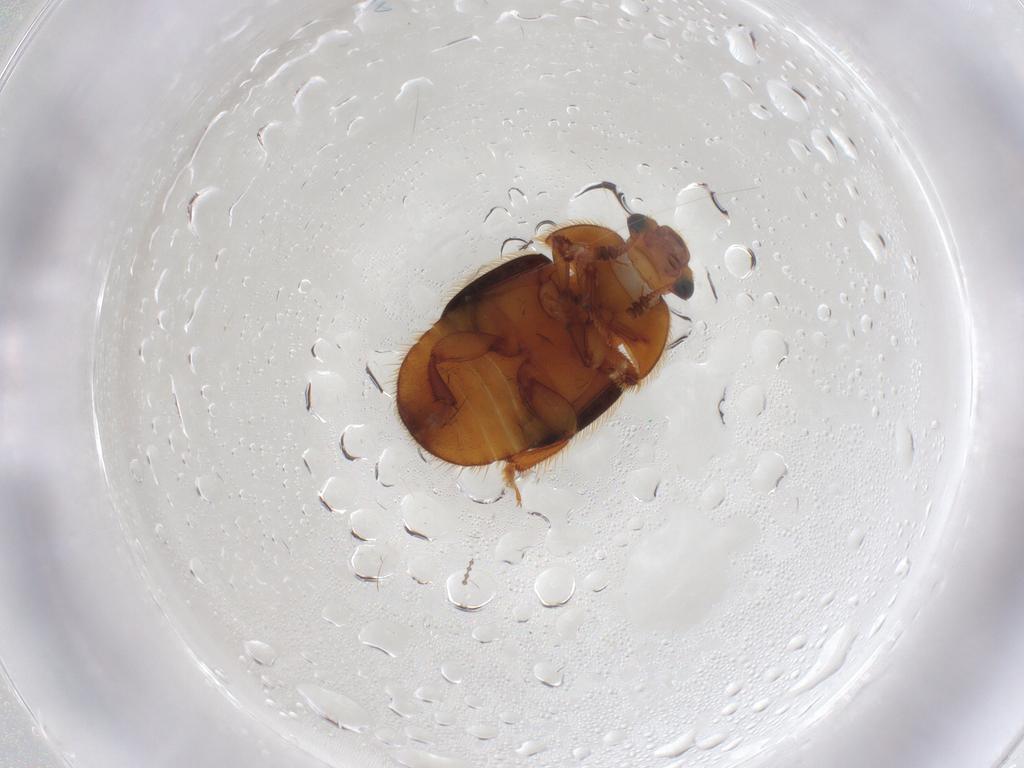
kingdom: Animalia
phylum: Arthropoda
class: Insecta
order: Coleoptera
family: Nitidulidae
